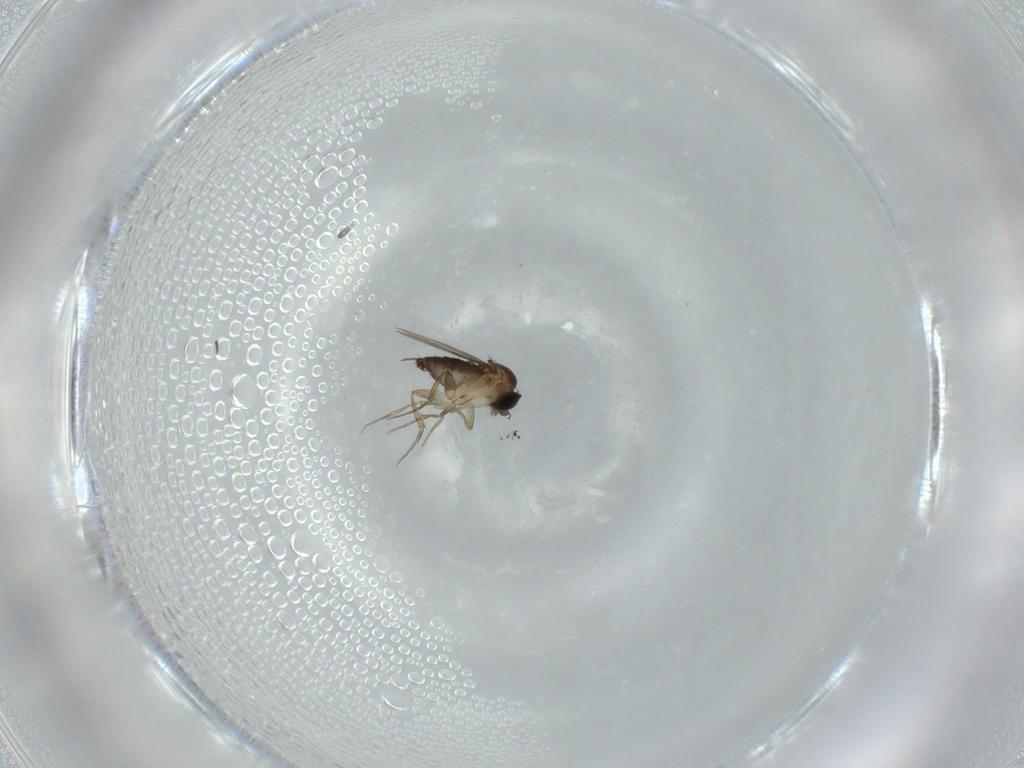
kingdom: Animalia
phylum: Arthropoda
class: Insecta
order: Diptera
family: Phoridae
